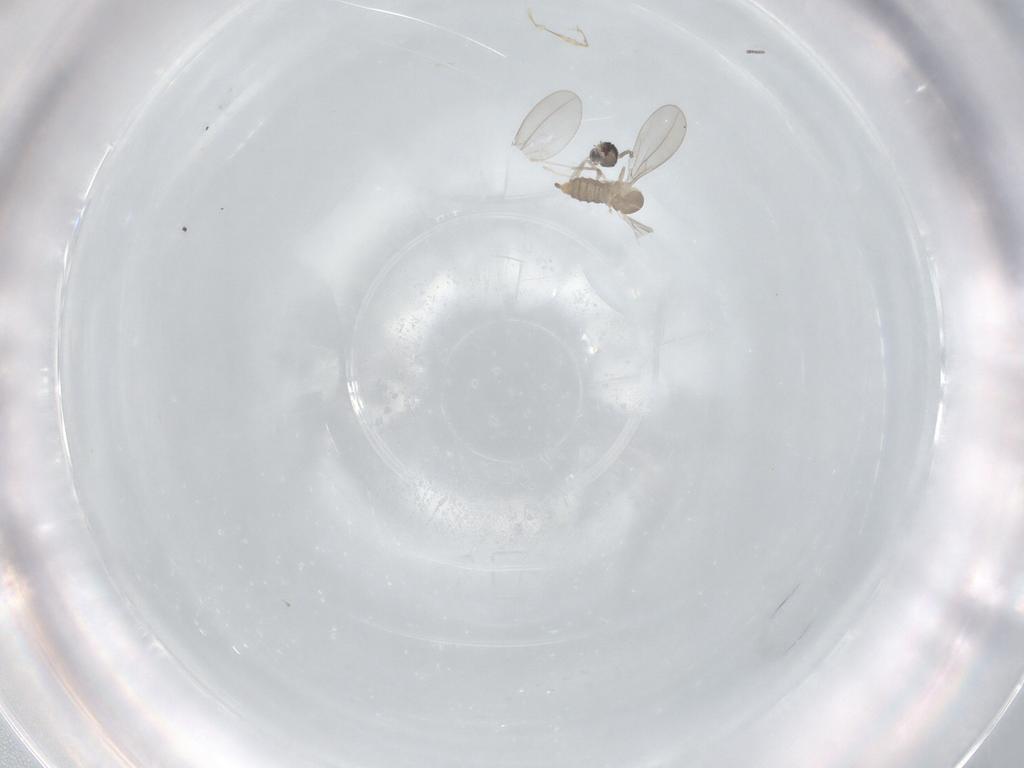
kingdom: Animalia
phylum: Arthropoda
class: Insecta
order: Diptera
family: Cecidomyiidae
